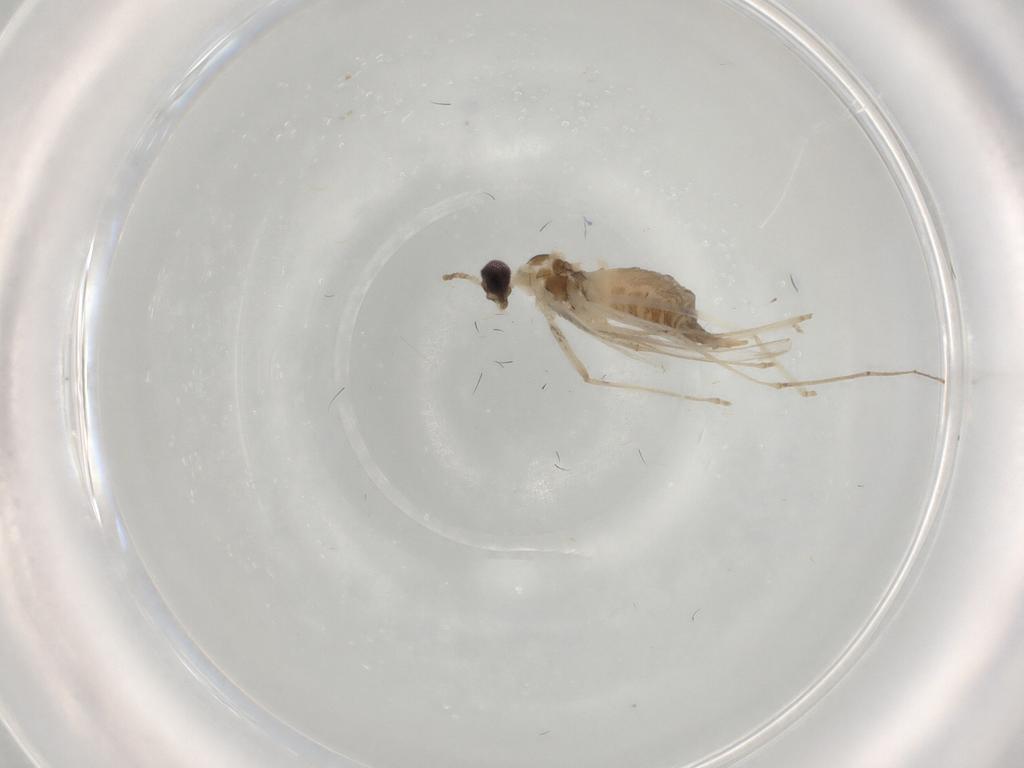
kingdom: Animalia
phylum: Arthropoda
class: Insecta
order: Diptera
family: Cecidomyiidae
